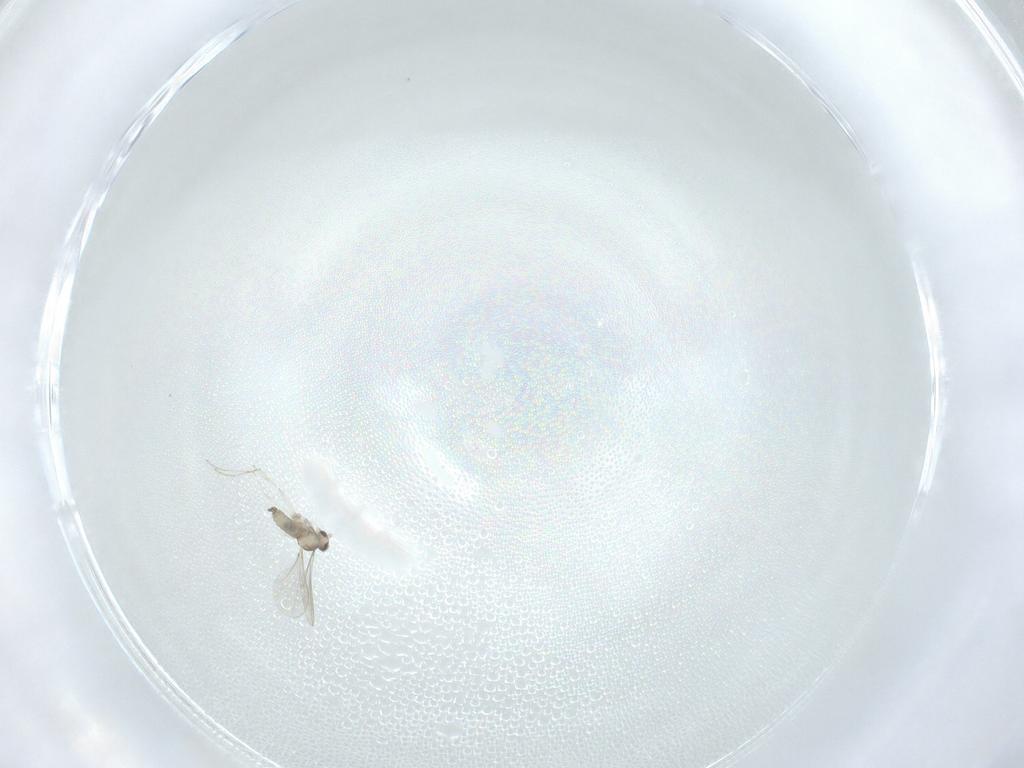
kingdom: Animalia
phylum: Arthropoda
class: Insecta
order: Diptera
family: Cecidomyiidae
